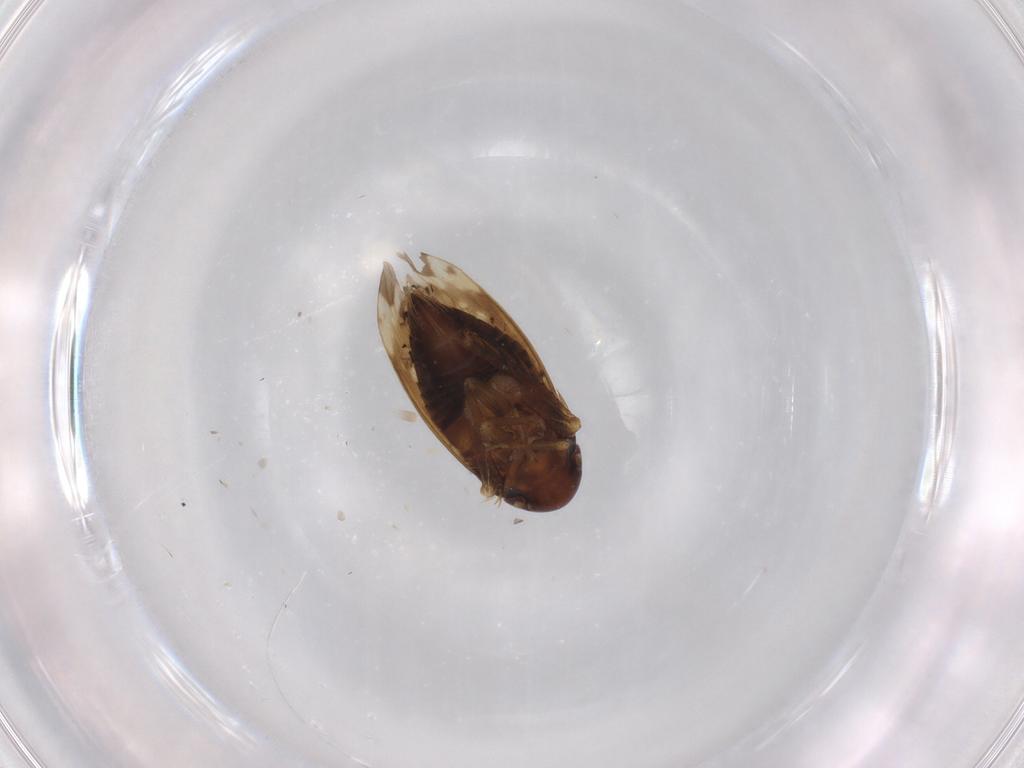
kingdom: Animalia
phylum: Arthropoda
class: Insecta
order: Hemiptera
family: Cicadellidae
